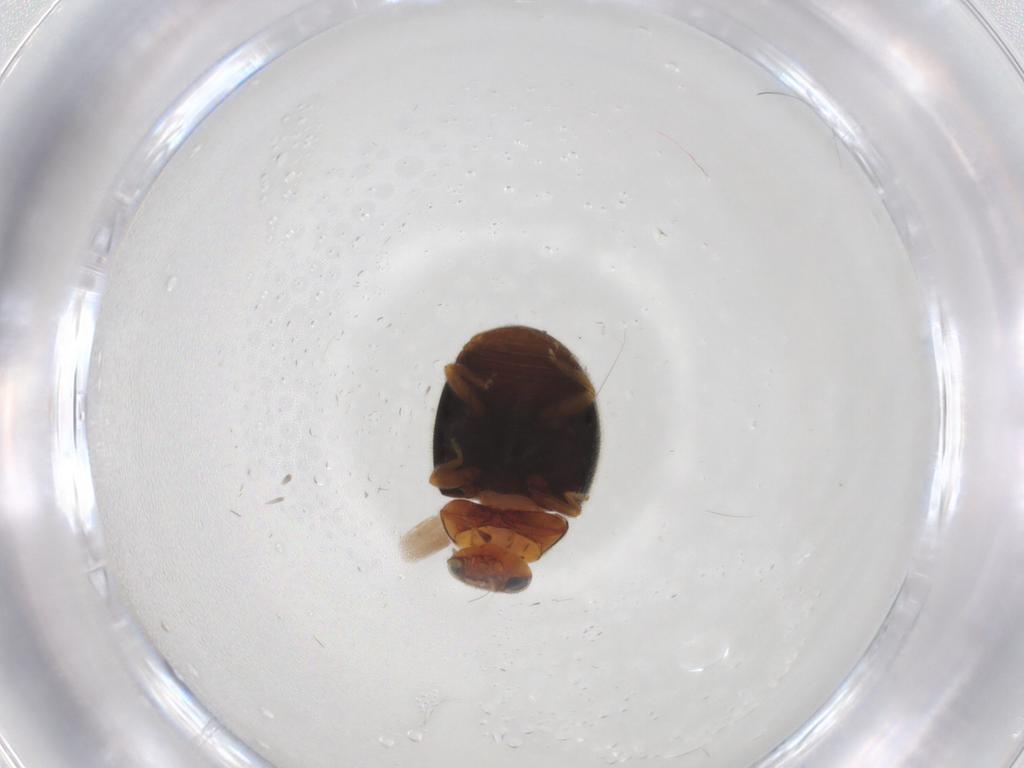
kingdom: Animalia
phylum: Arthropoda
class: Insecta
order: Coleoptera
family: Coccinellidae
